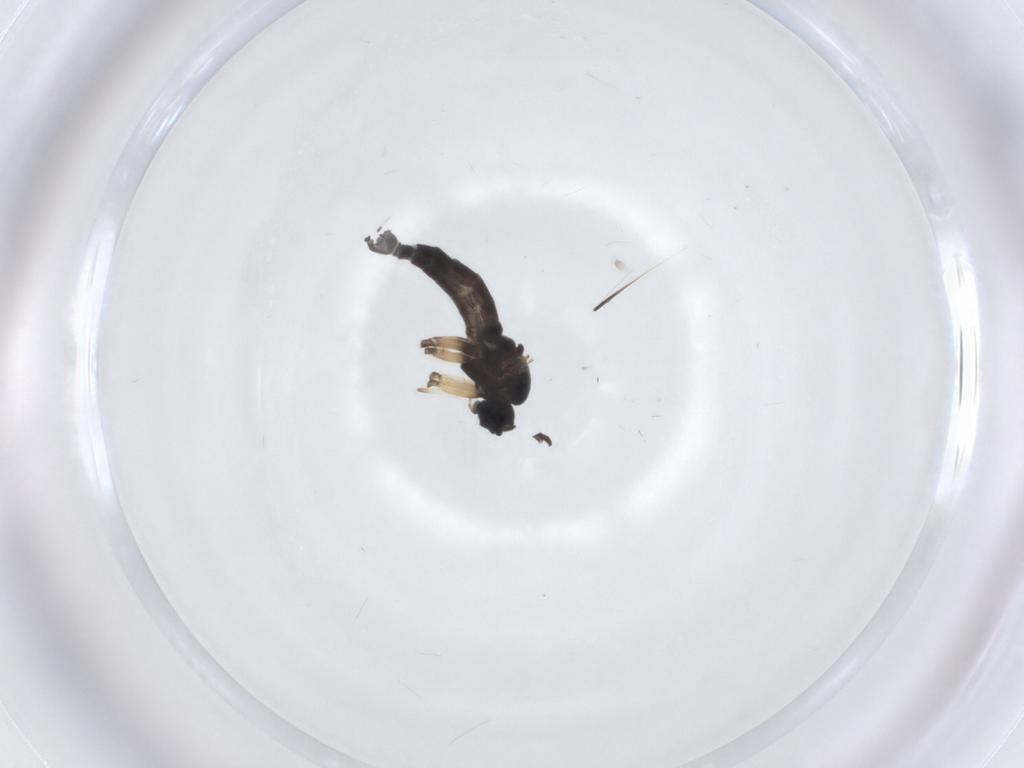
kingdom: Animalia
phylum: Arthropoda
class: Insecta
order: Diptera
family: Sciaridae
